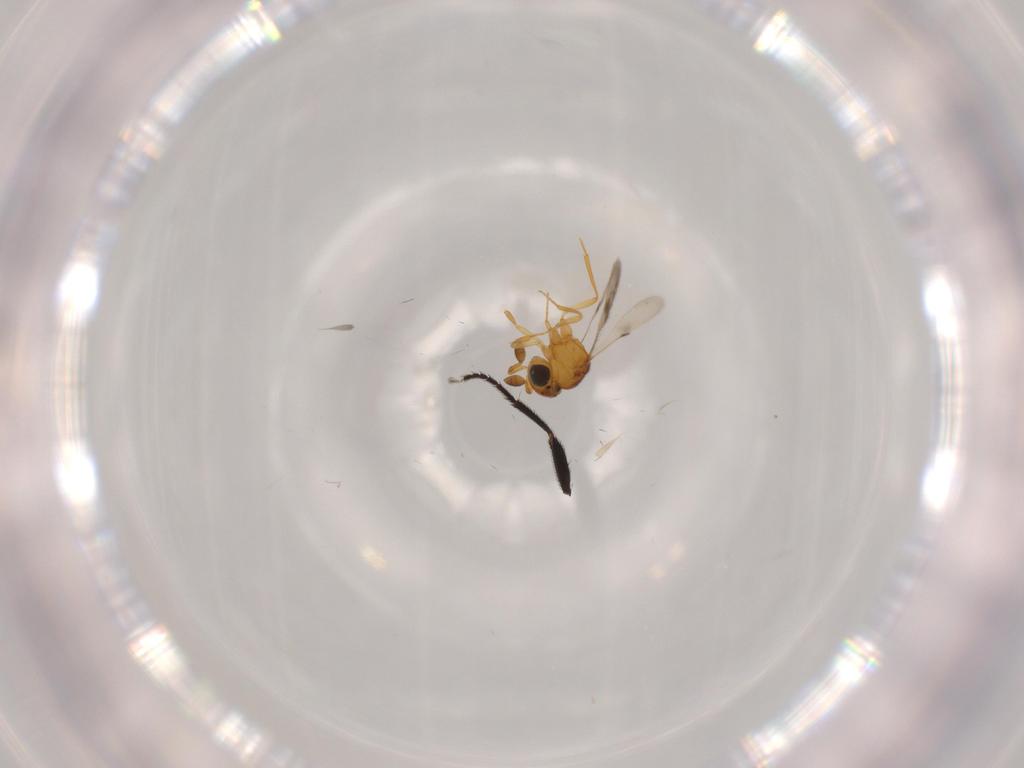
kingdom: Animalia
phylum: Arthropoda
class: Insecta
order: Hymenoptera
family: Scelionidae
